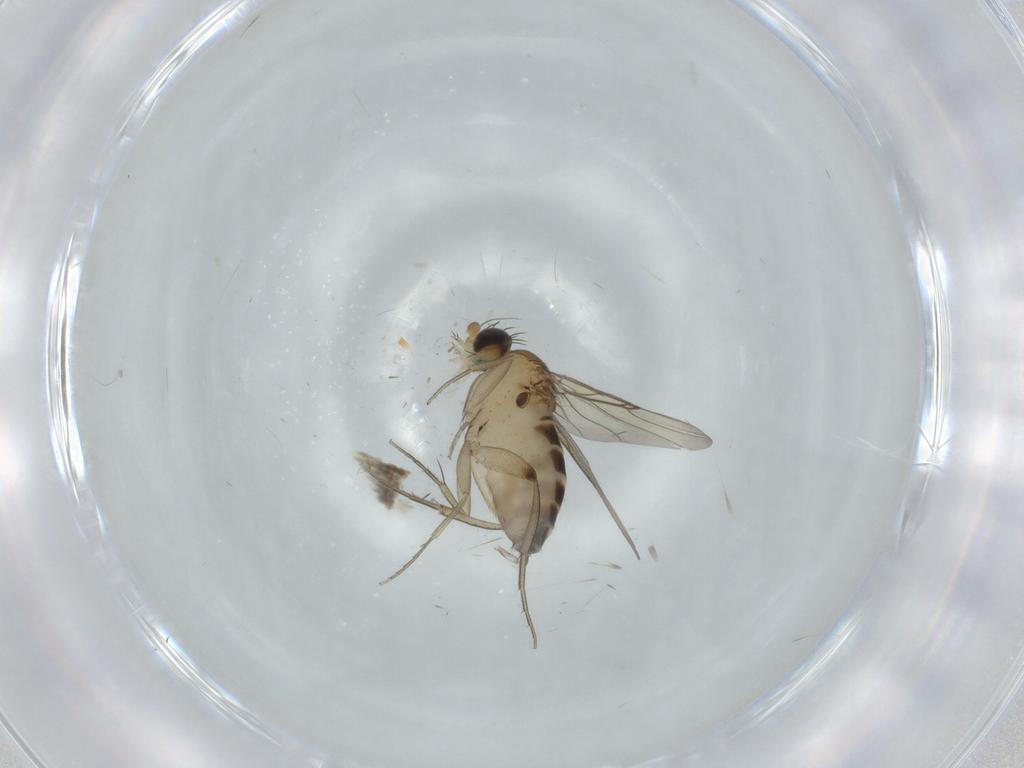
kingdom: Animalia
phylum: Arthropoda
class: Insecta
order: Diptera
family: Phoridae
